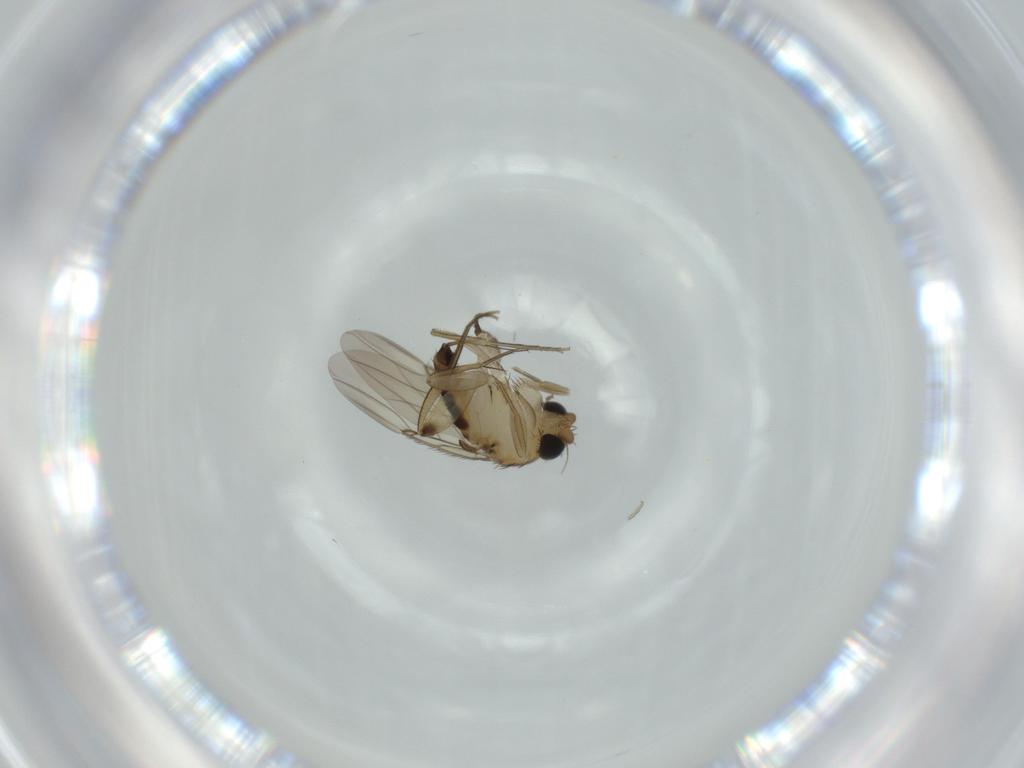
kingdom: Animalia
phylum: Arthropoda
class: Insecta
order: Diptera
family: Phoridae
